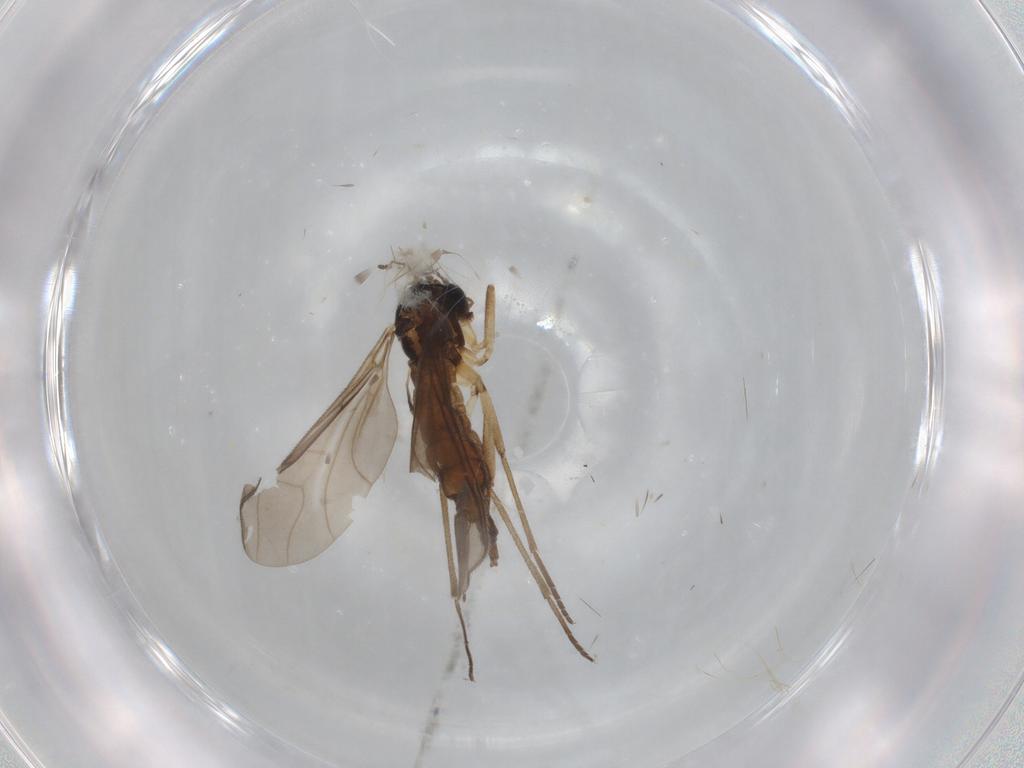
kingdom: Animalia
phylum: Arthropoda
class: Insecta
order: Diptera
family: Sciaridae
